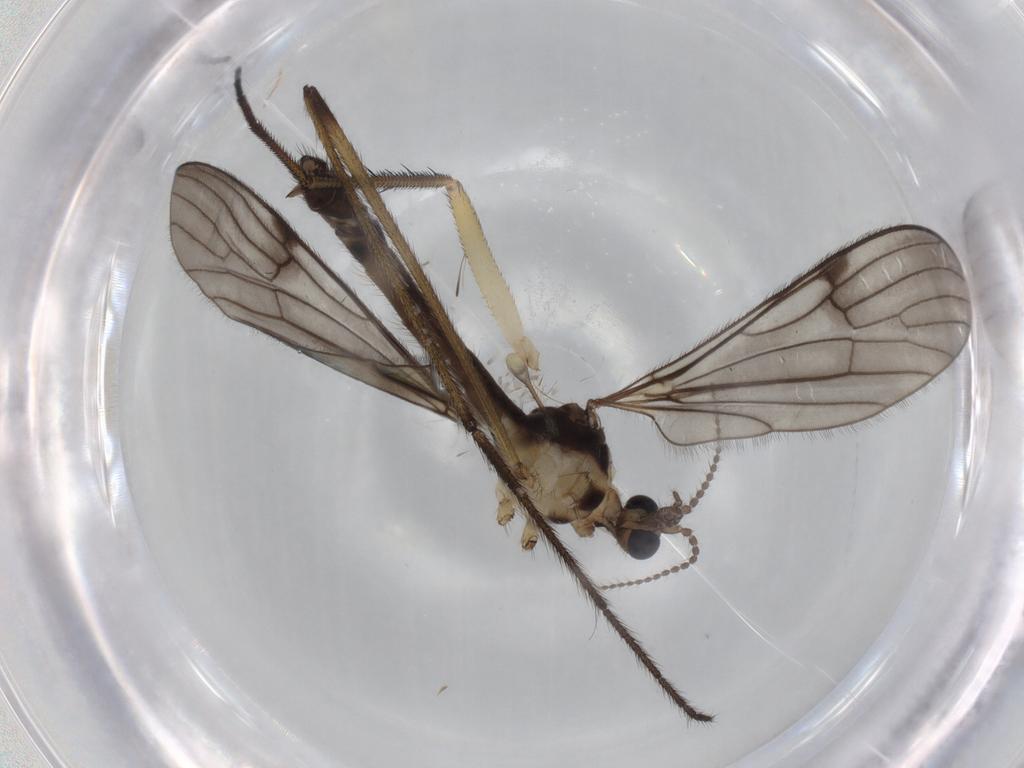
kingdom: Animalia
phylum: Arthropoda
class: Insecta
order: Diptera
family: Limoniidae
